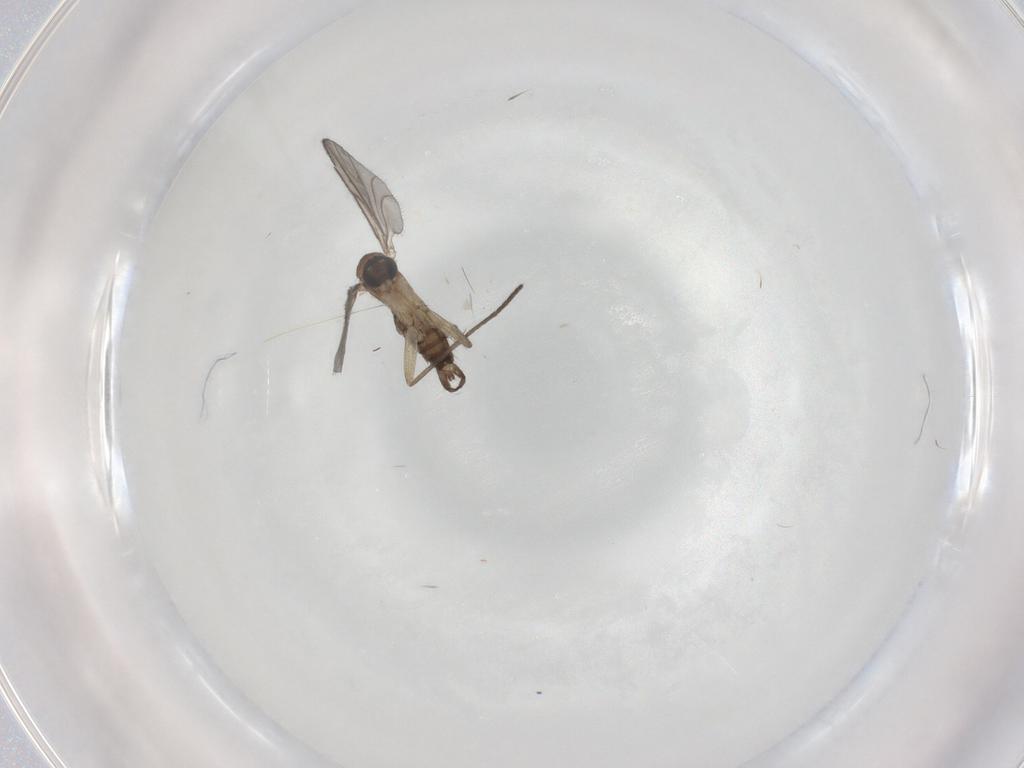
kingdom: Animalia
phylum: Arthropoda
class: Insecta
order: Diptera
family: Sciaridae
